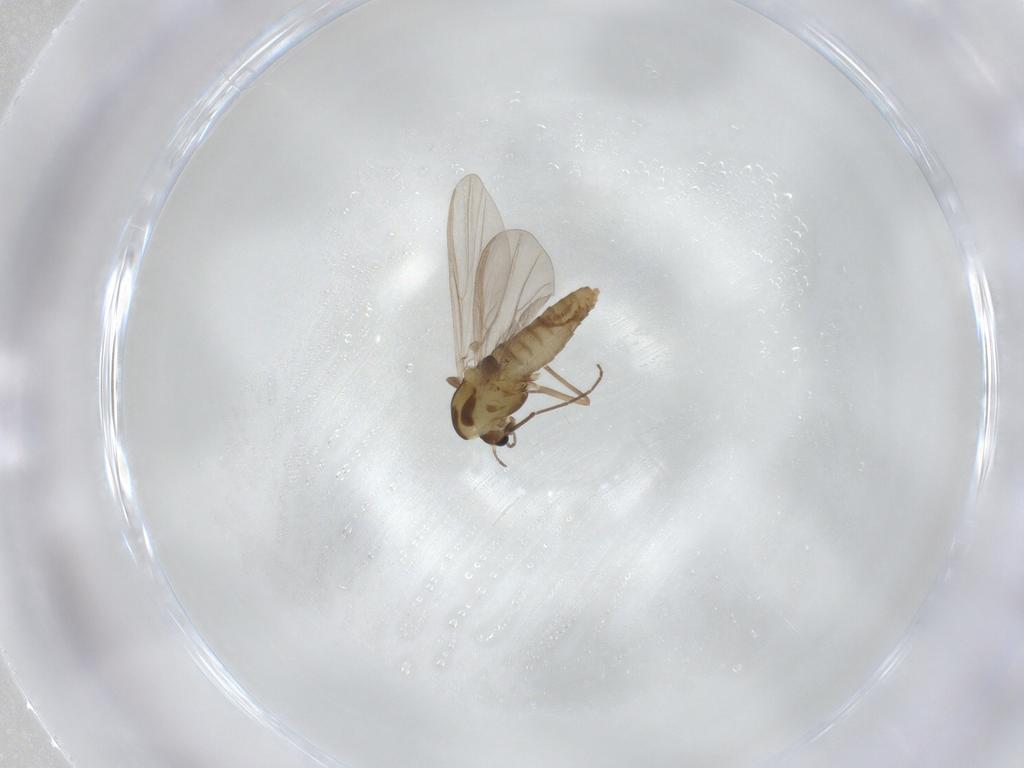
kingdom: Animalia
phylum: Arthropoda
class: Insecta
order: Diptera
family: Chironomidae
